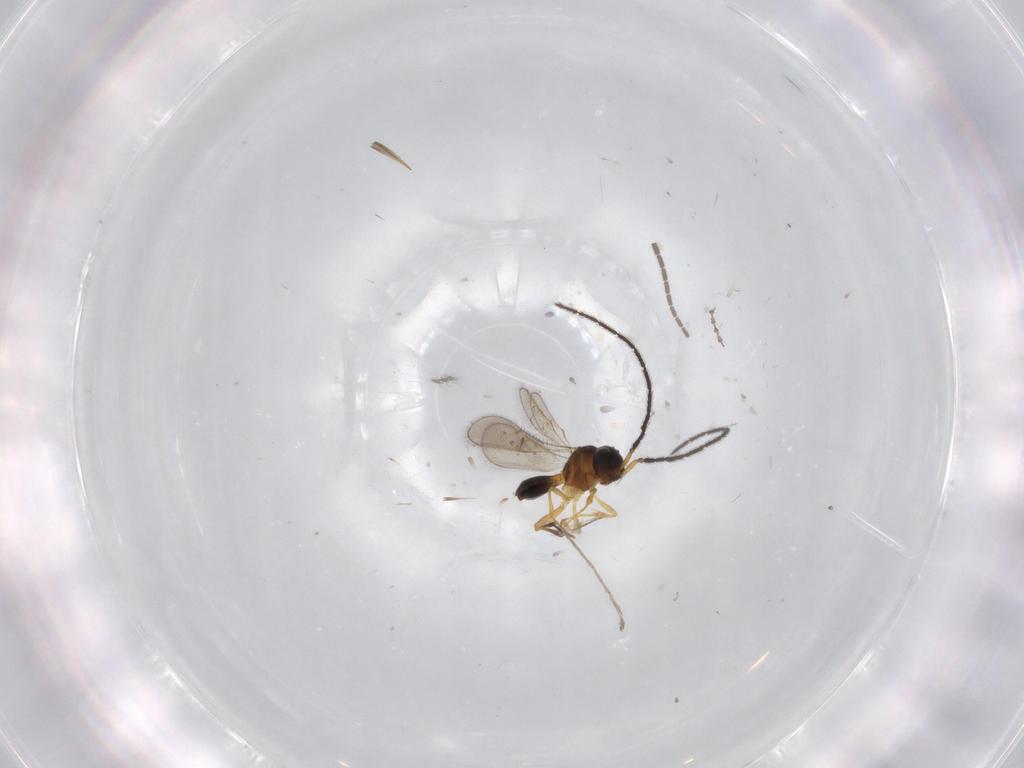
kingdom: Animalia
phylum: Arthropoda
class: Insecta
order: Hymenoptera
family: Scelionidae
